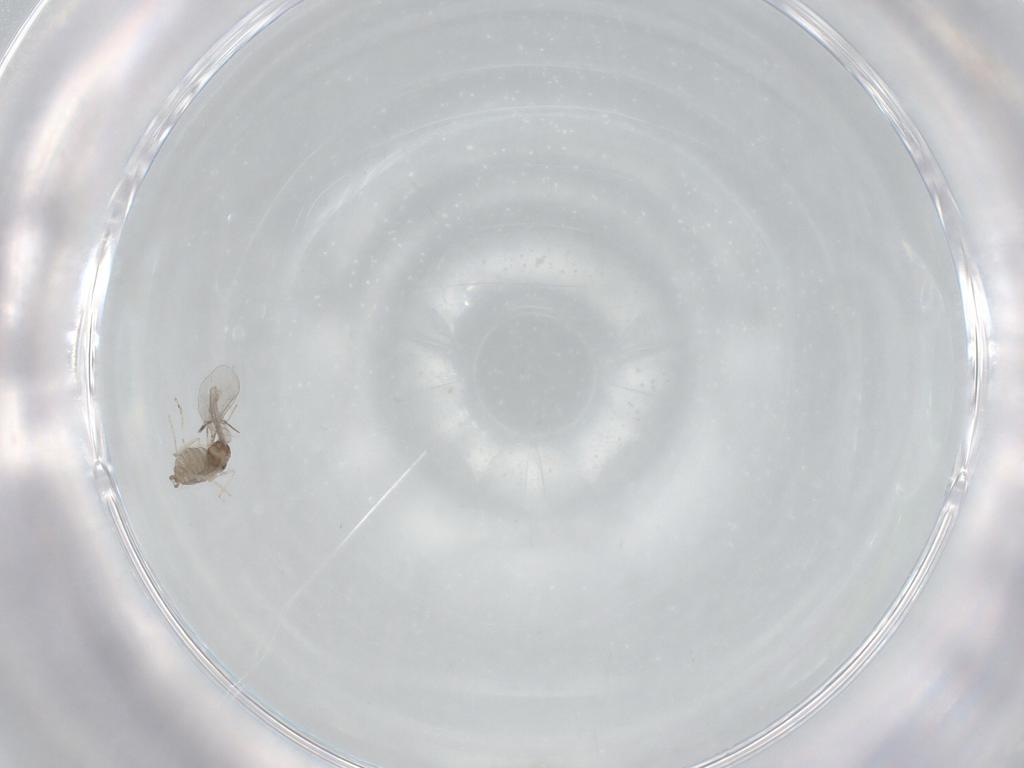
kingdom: Animalia
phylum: Arthropoda
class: Insecta
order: Diptera
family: Cecidomyiidae
